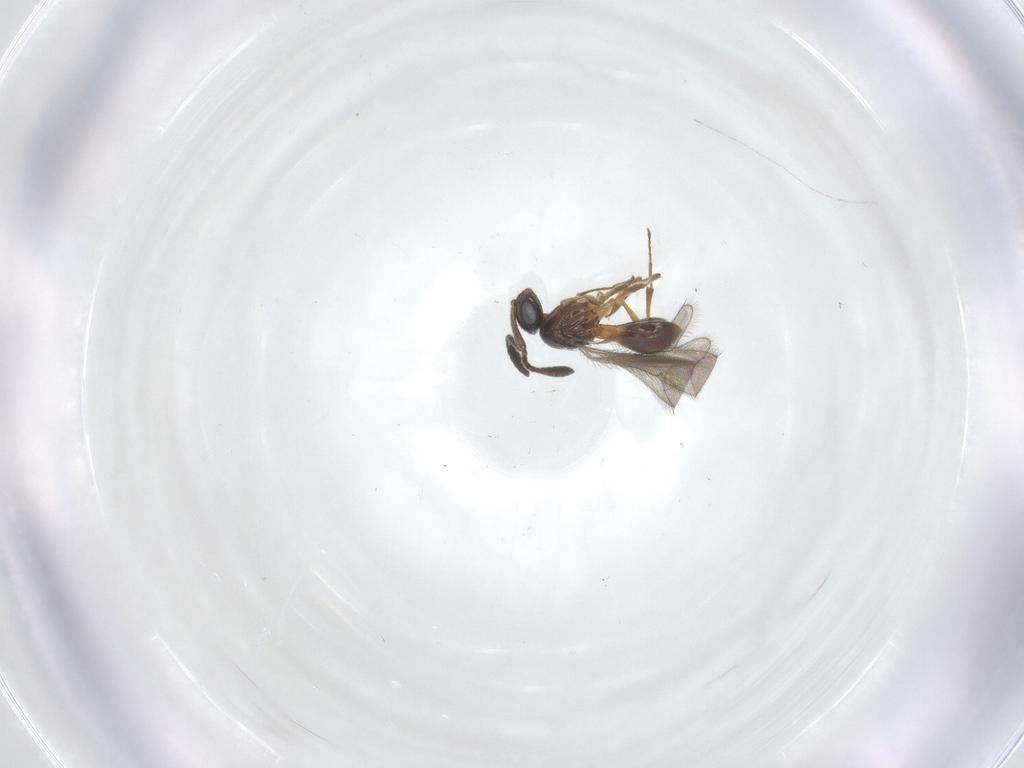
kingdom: Animalia
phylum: Arthropoda
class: Insecta
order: Hymenoptera
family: Scelionidae
